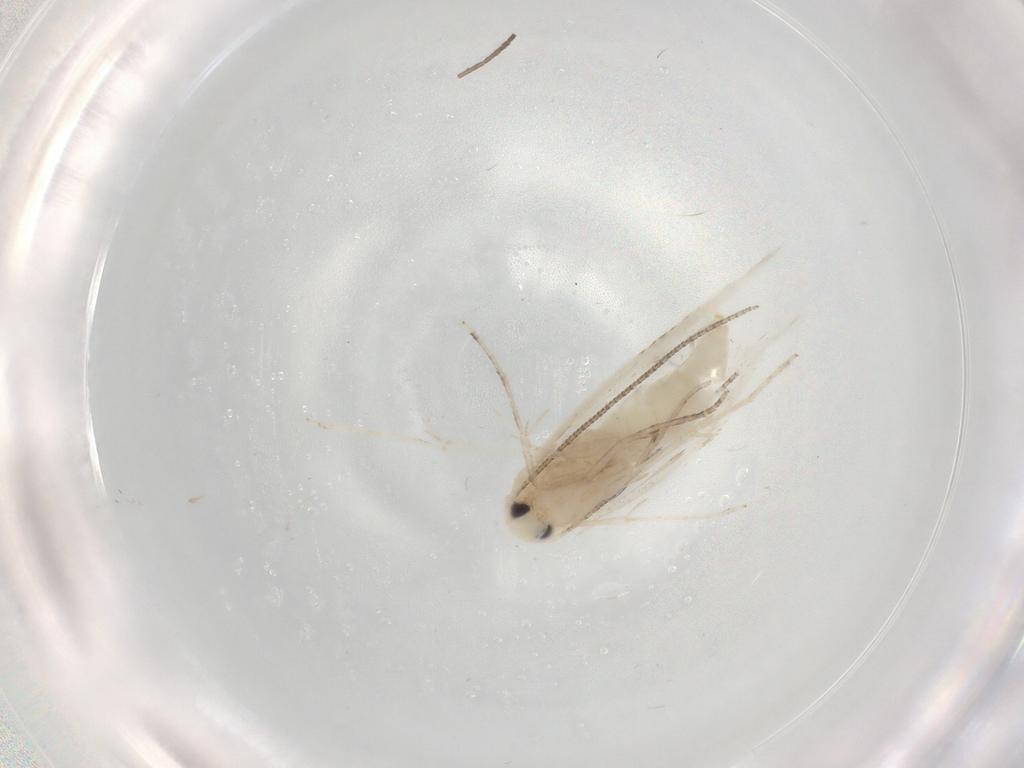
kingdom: Animalia
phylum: Arthropoda
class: Insecta
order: Lepidoptera
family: Lyonetiidae
